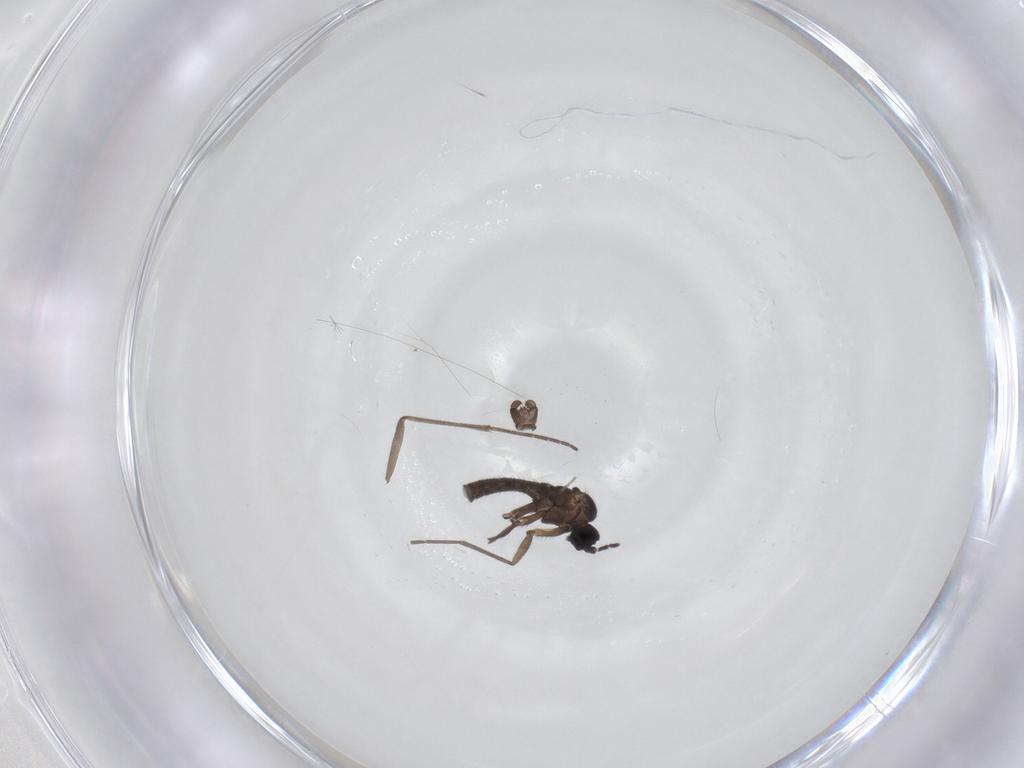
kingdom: Animalia
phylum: Arthropoda
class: Insecta
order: Diptera
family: Sciaridae
